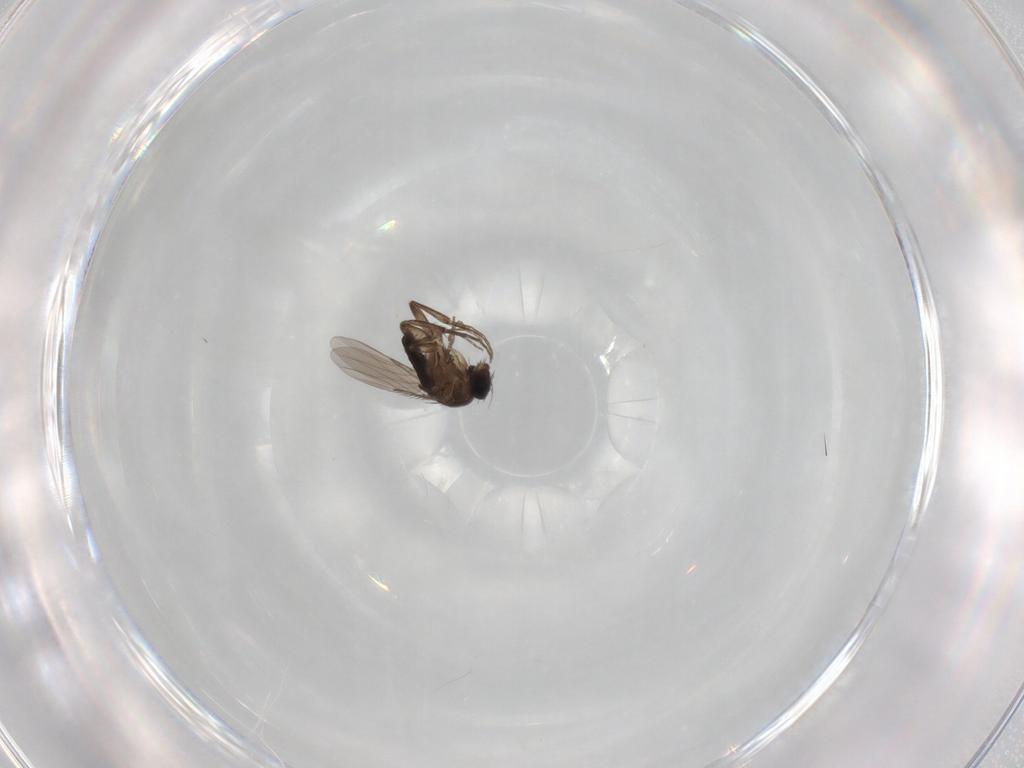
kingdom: Animalia
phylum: Arthropoda
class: Insecta
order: Diptera
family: Phoridae
